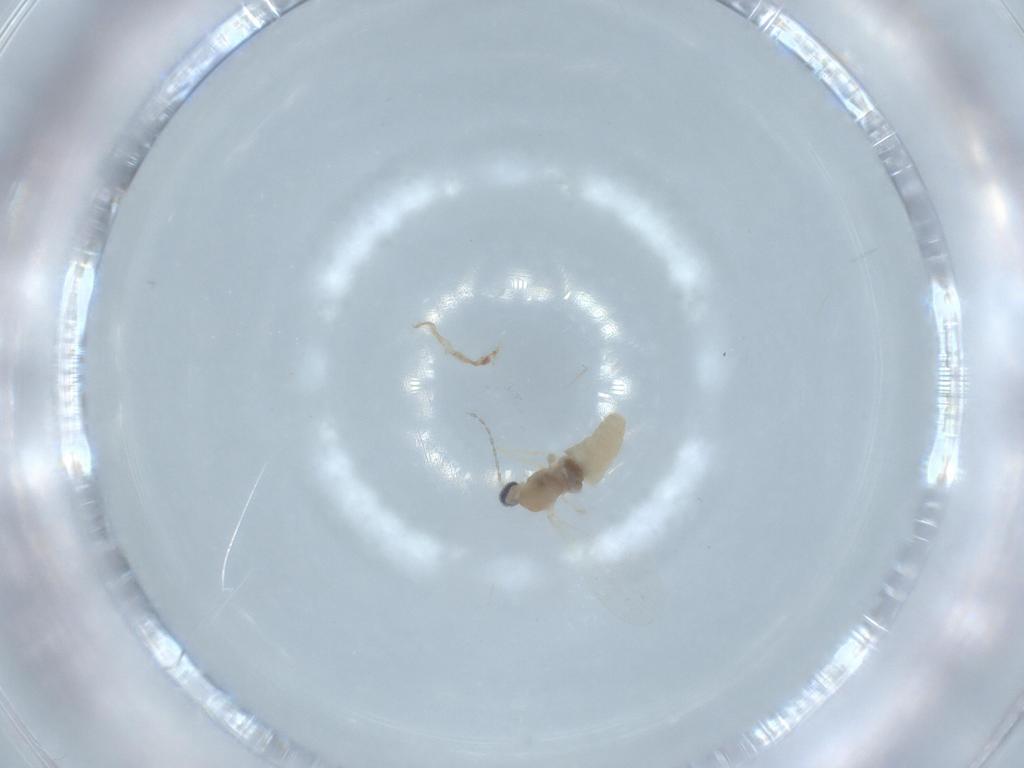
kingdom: Animalia
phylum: Arthropoda
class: Insecta
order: Diptera
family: Cecidomyiidae
